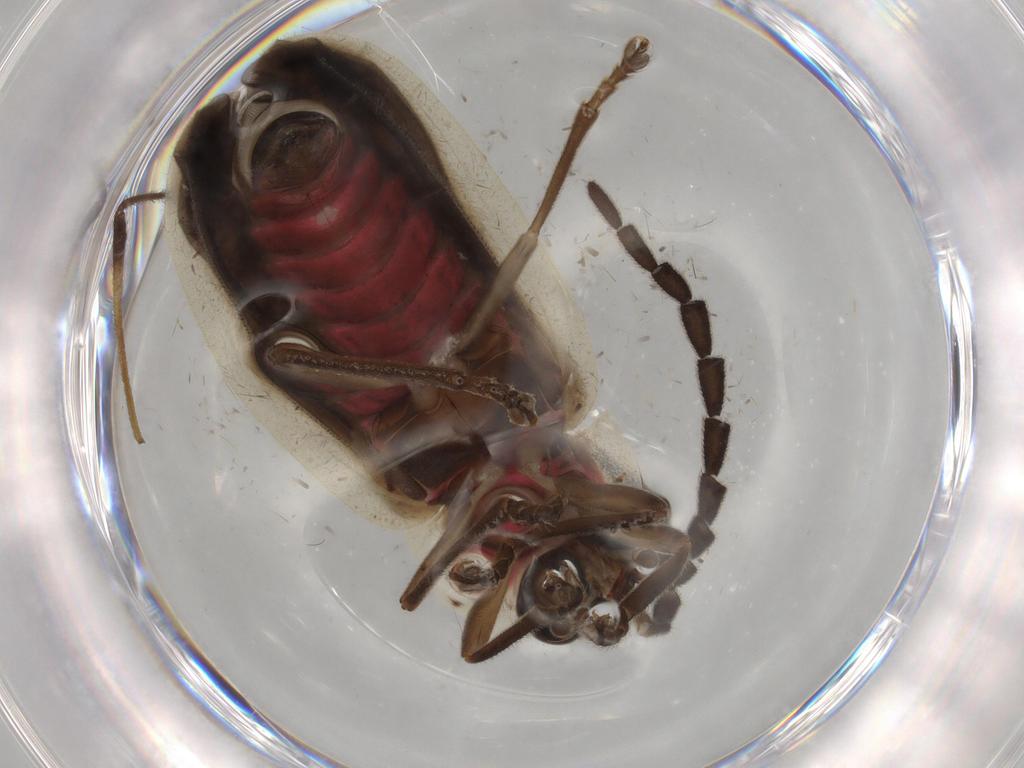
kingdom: Animalia
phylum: Arthropoda
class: Insecta
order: Coleoptera
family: Lampyridae
